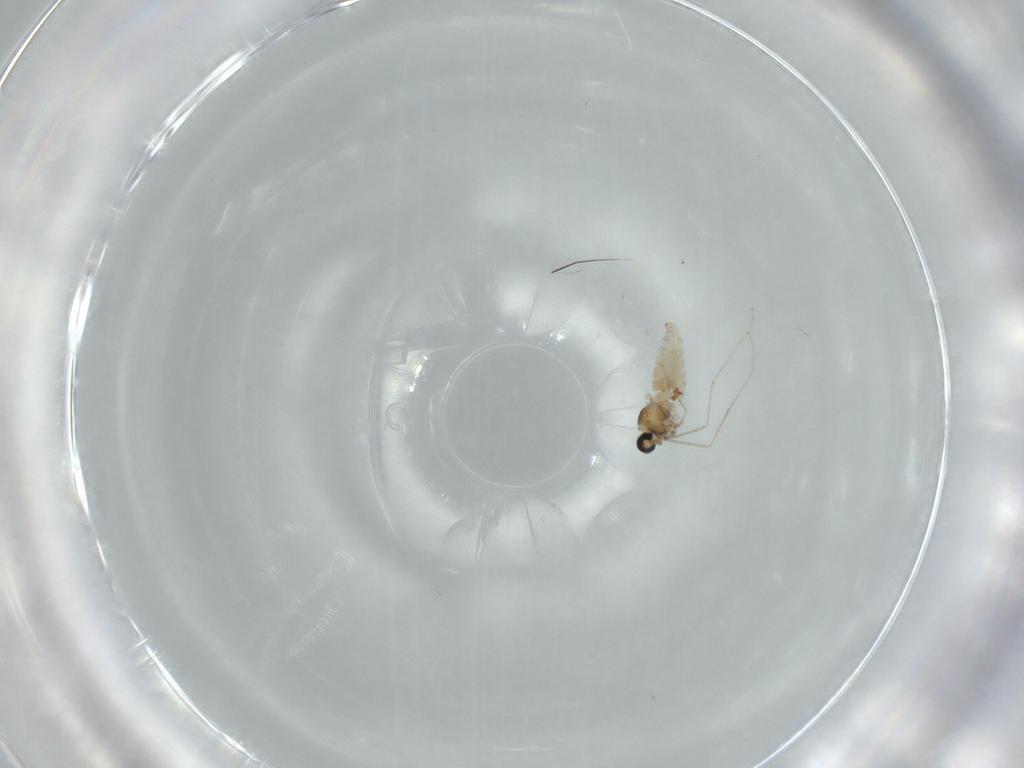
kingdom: Animalia
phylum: Arthropoda
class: Insecta
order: Diptera
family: Cecidomyiidae
